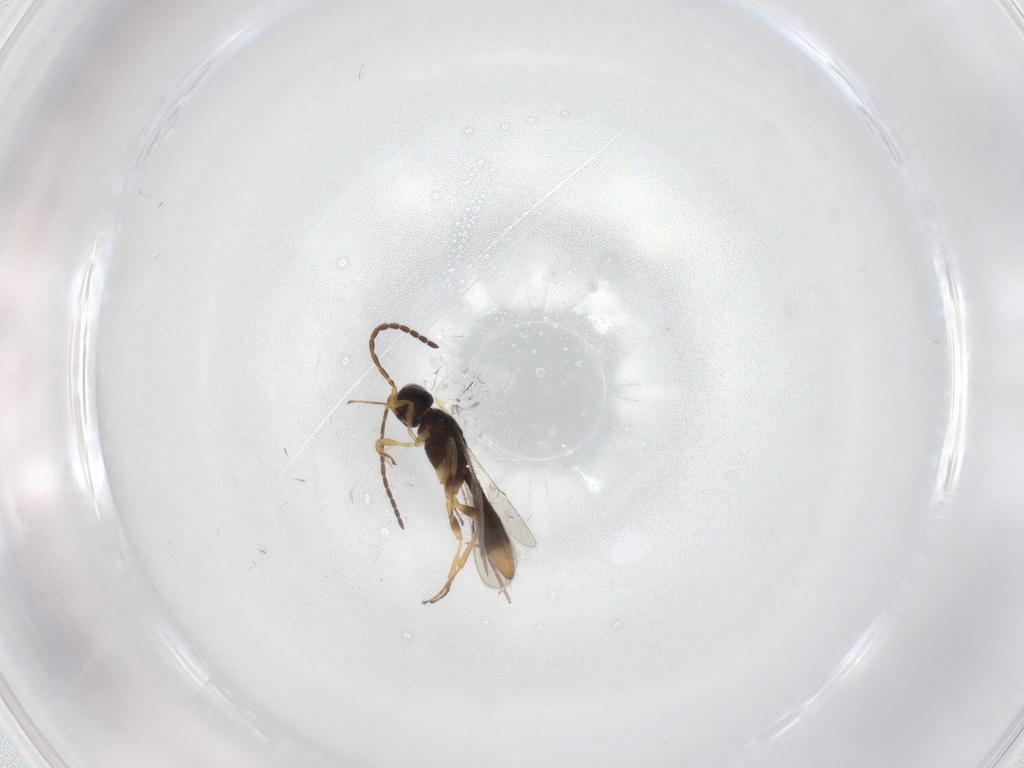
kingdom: Animalia
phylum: Arthropoda
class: Insecta
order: Hymenoptera
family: Scelionidae
